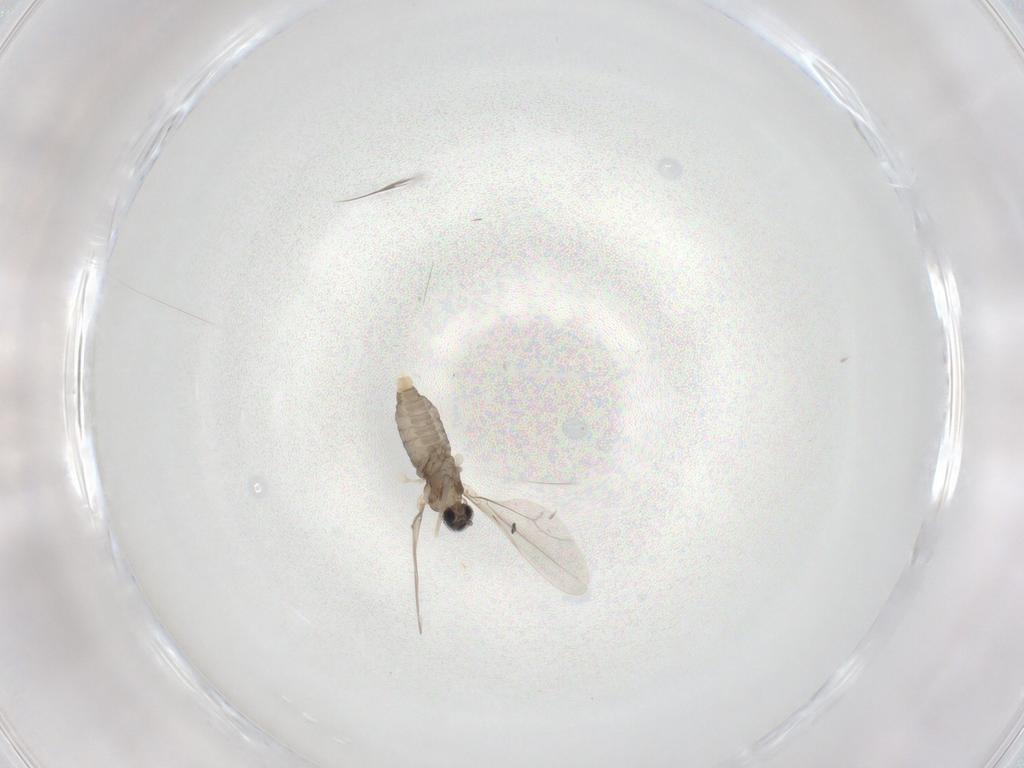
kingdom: Animalia
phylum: Arthropoda
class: Insecta
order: Diptera
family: Cecidomyiidae
